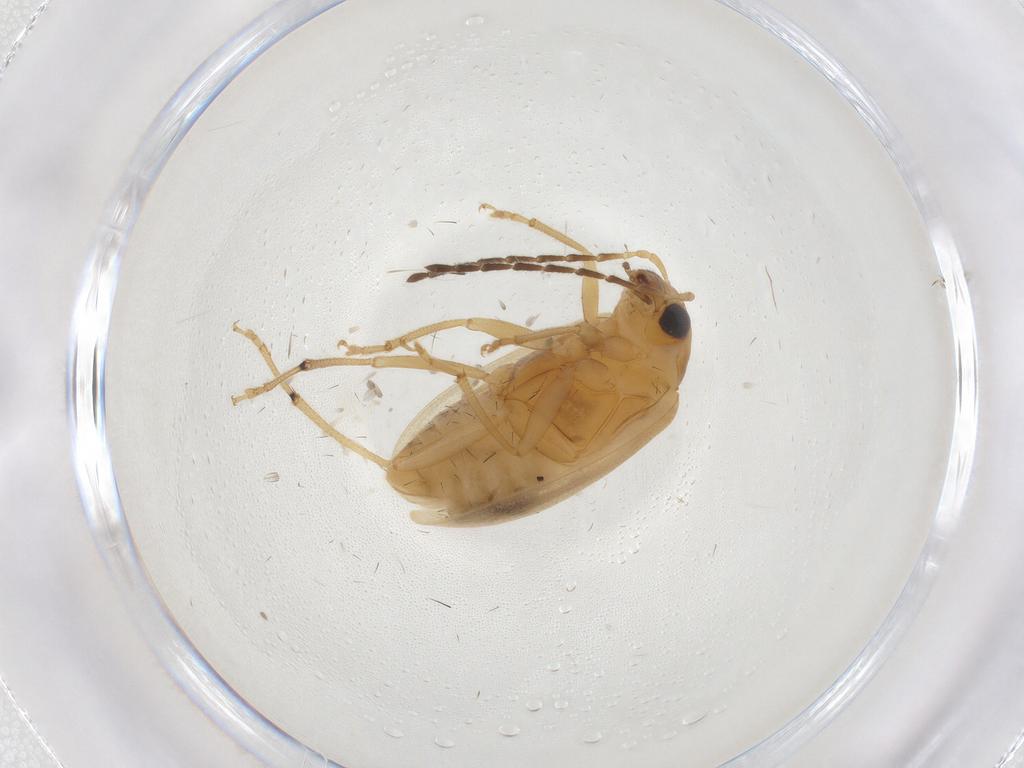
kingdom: Animalia
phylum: Arthropoda
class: Insecta
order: Coleoptera
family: Chrysomelidae
